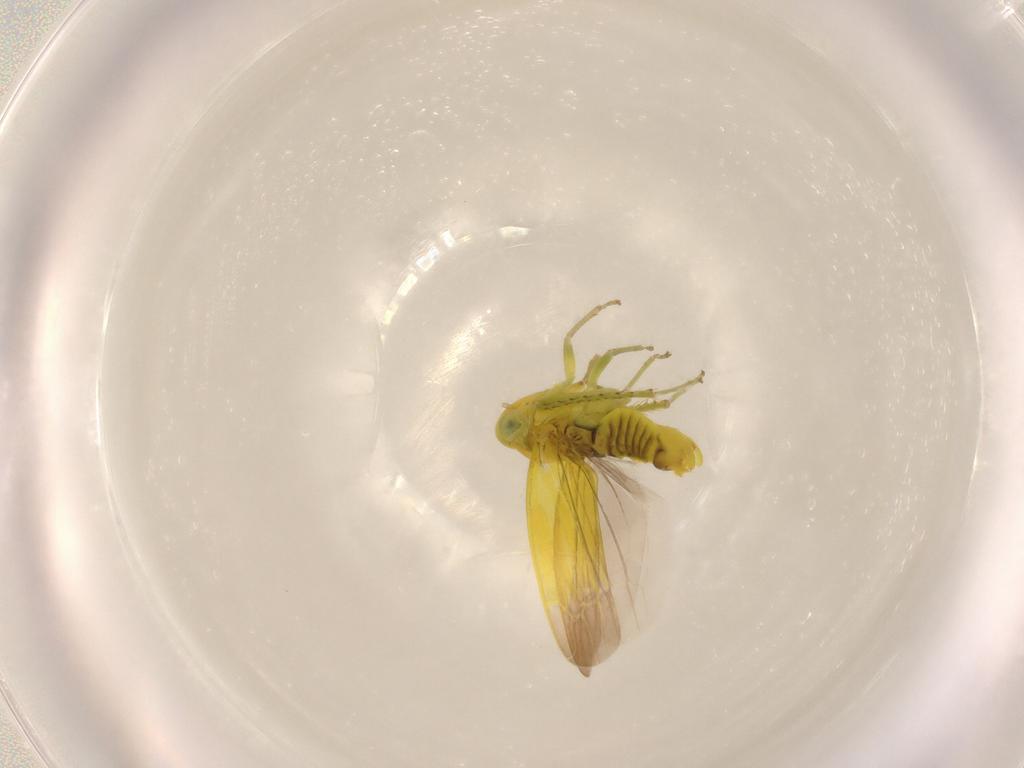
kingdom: Animalia
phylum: Arthropoda
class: Insecta
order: Hemiptera
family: Cicadellidae
